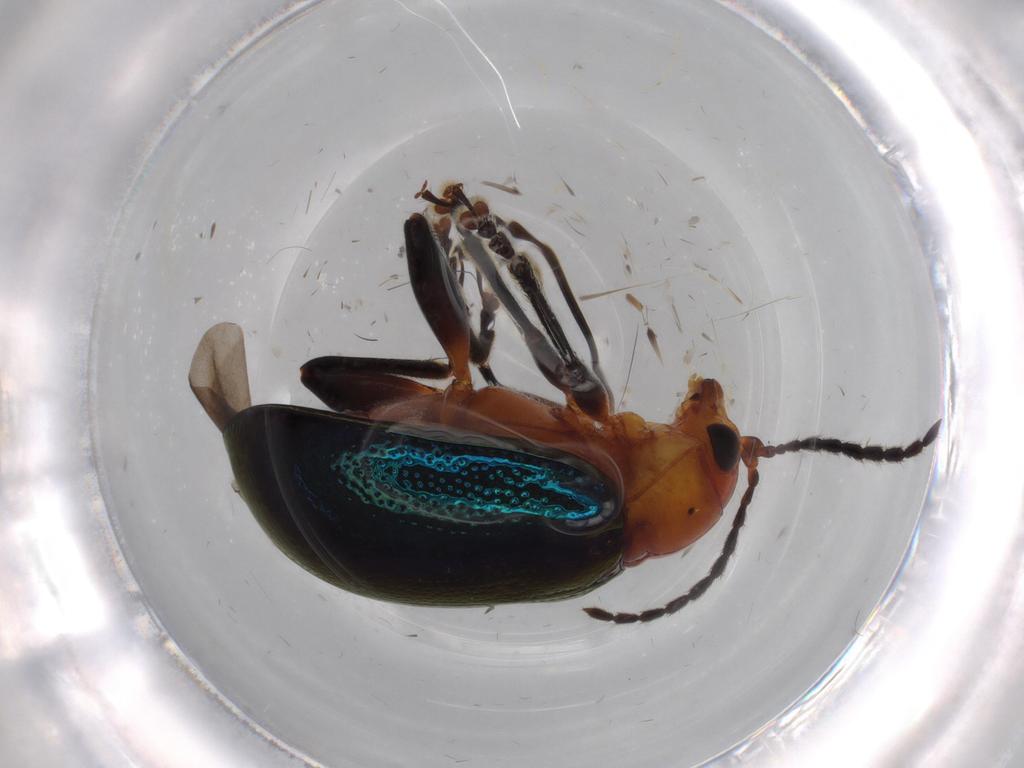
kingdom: Animalia
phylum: Arthropoda
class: Insecta
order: Coleoptera
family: Chrysomelidae
